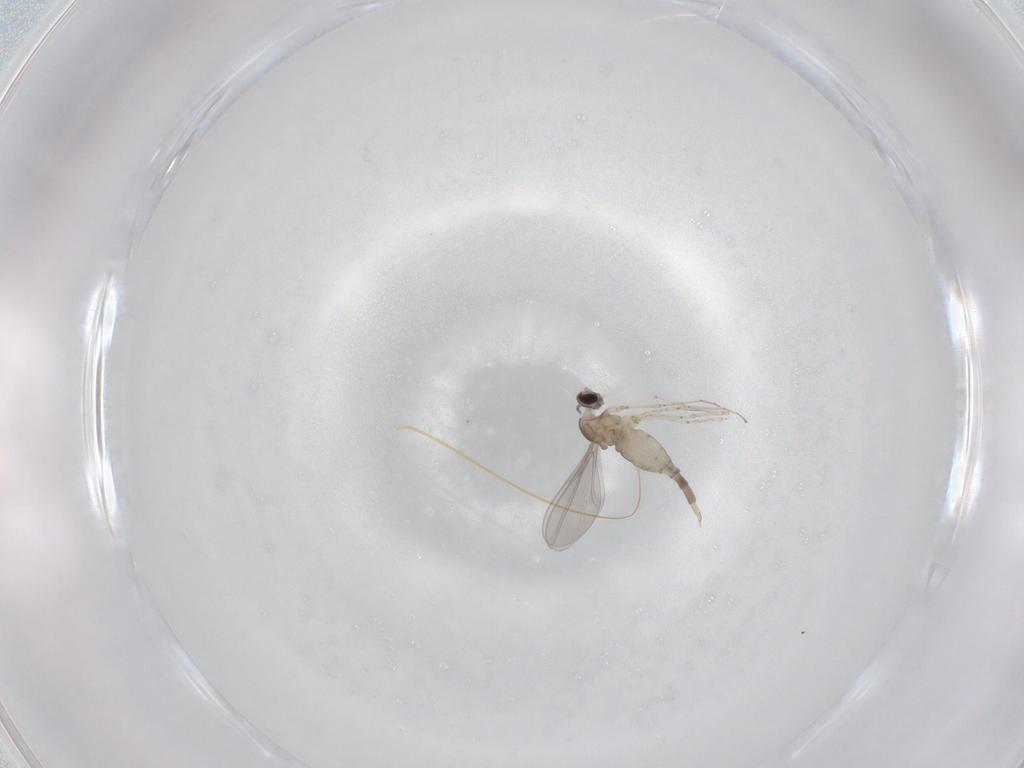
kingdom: Animalia
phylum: Arthropoda
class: Insecta
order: Diptera
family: Cecidomyiidae
